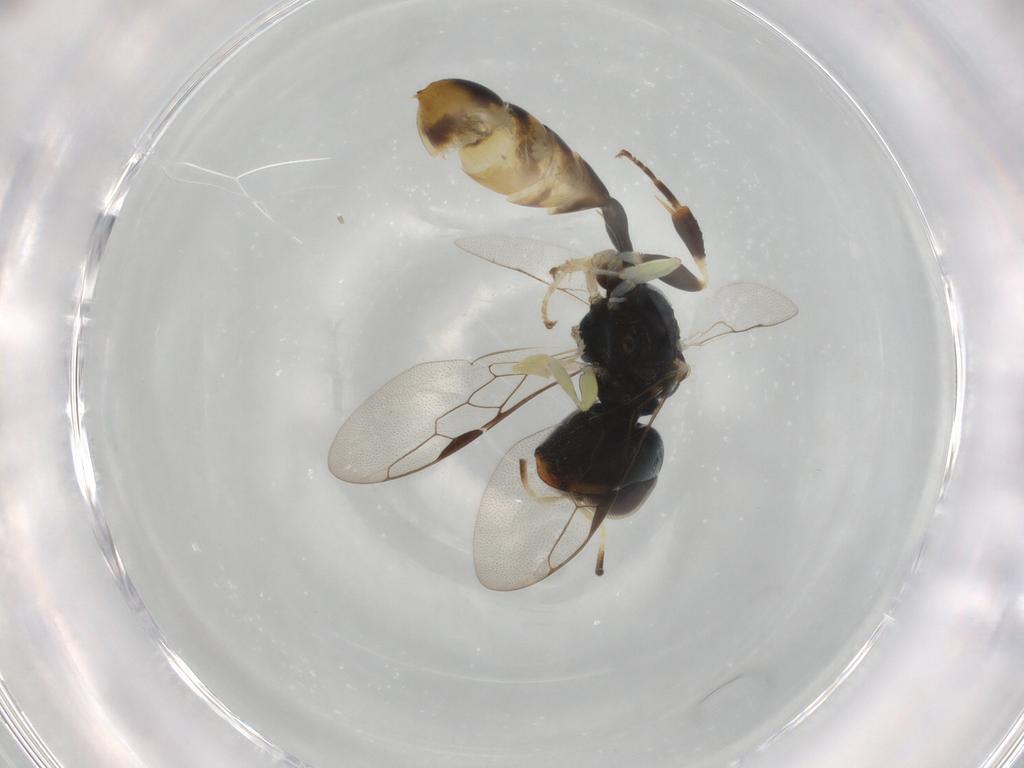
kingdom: Animalia
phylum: Arthropoda
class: Insecta
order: Hymenoptera
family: Crabronidae
